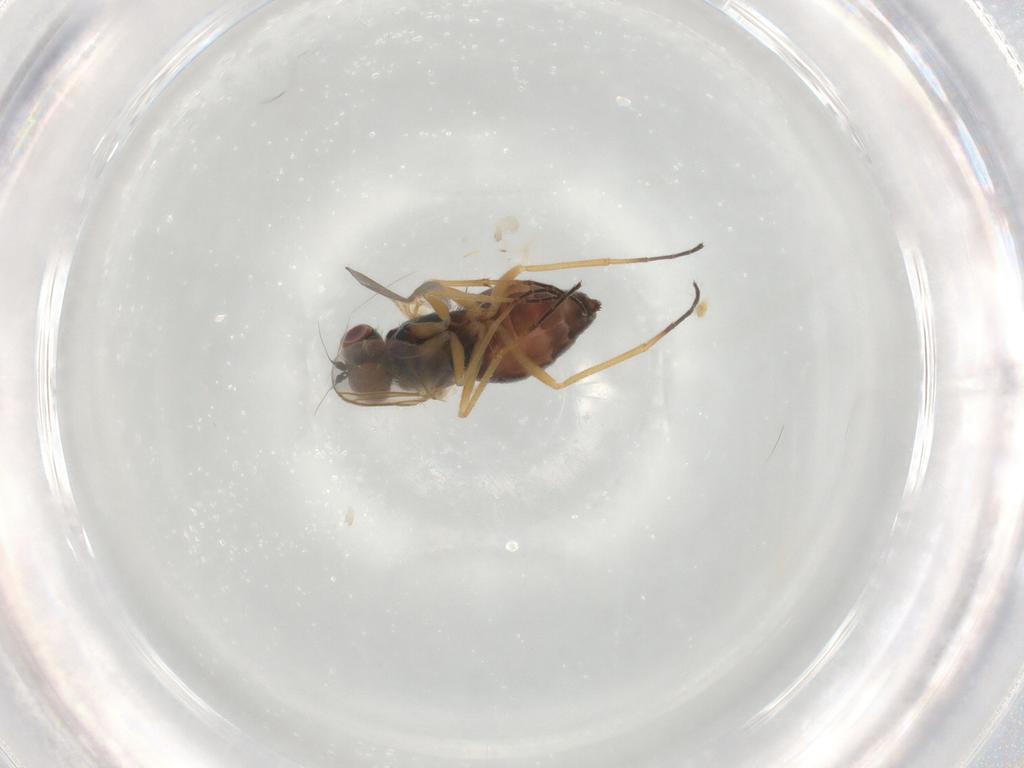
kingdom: Animalia
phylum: Arthropoda
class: Insecta
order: Diptera
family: Dolichopodidae
